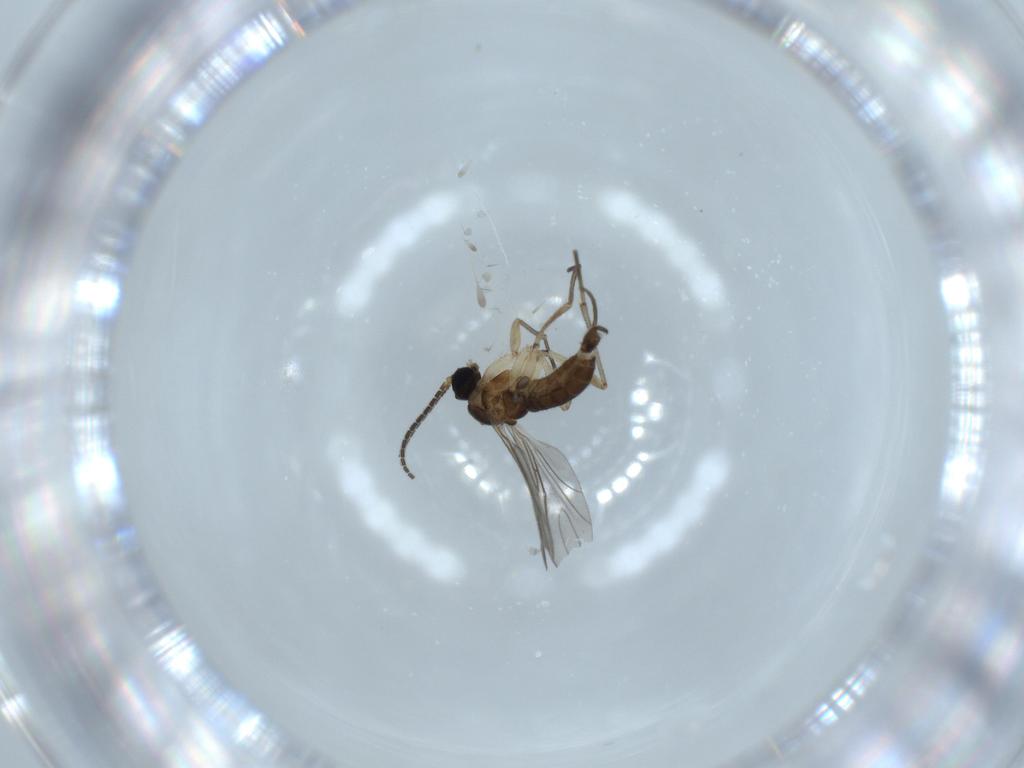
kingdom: Animalia
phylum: Arthropoda
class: Insecta
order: Diptera
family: Sciaridae
